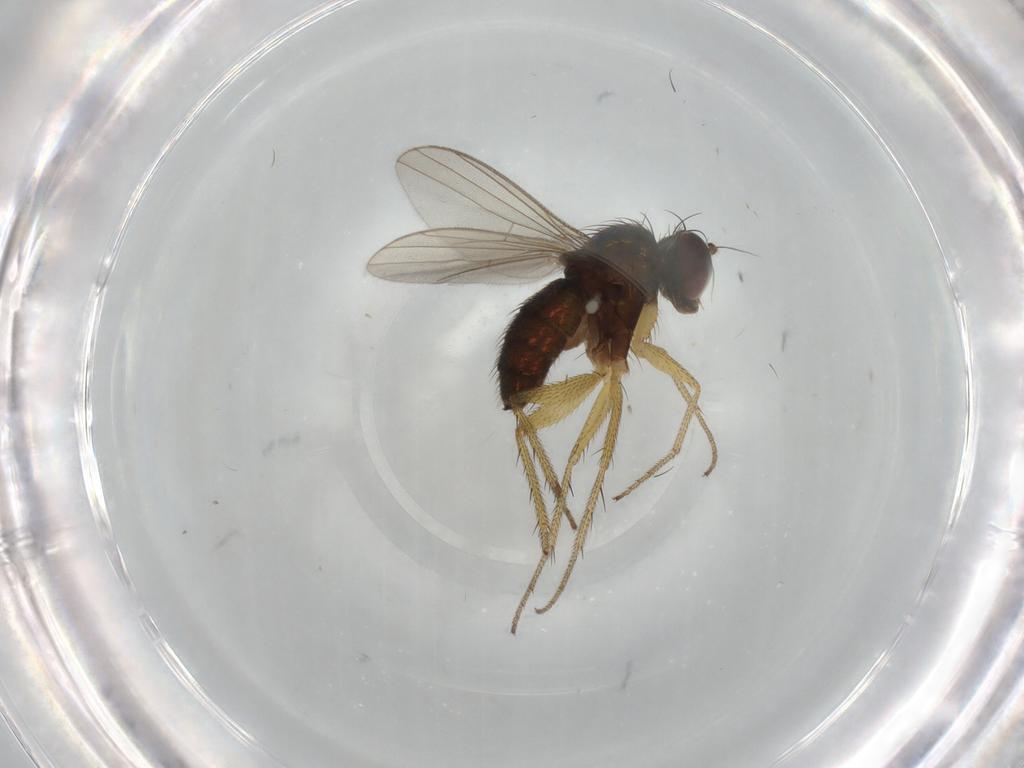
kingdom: Animalia
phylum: Arthropoda
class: Insecta
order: Diptera
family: Dolichopodidae
